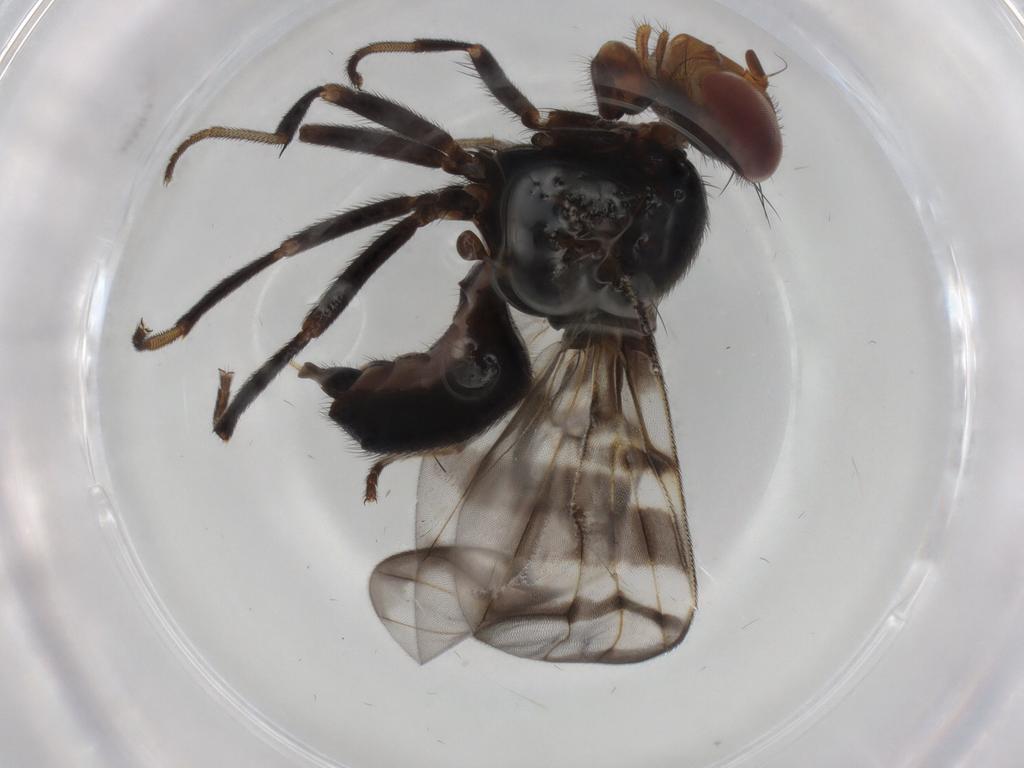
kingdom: Animalia
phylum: Arthropoda
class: Insecta
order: Diptera
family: Platystomatidae
